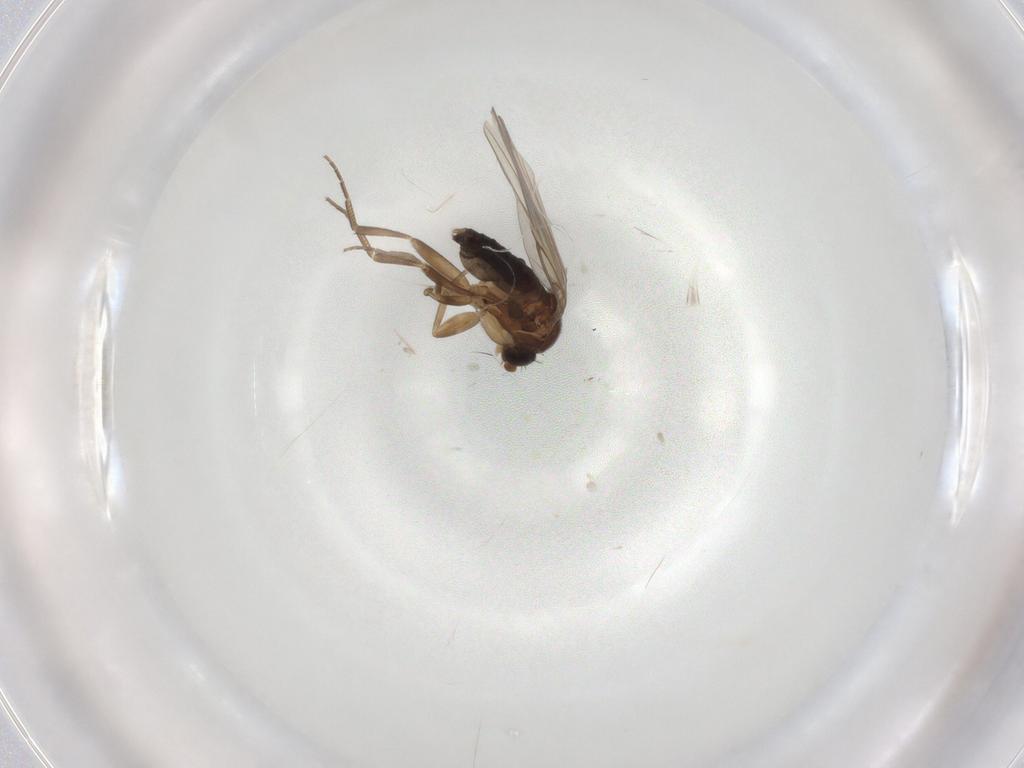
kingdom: Animalia
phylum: Arthropoda
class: Insecta
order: Diptera
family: Phoridae
